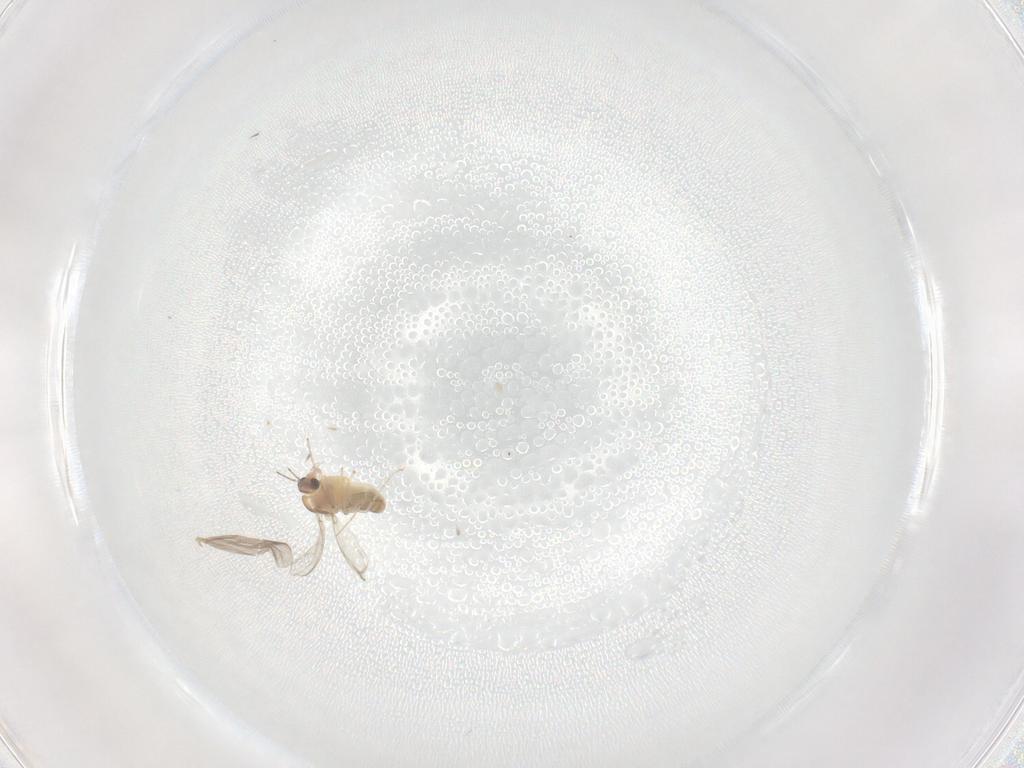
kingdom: Animalia
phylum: Arthropoda
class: Insecta
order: Diptera
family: Chironomidae
